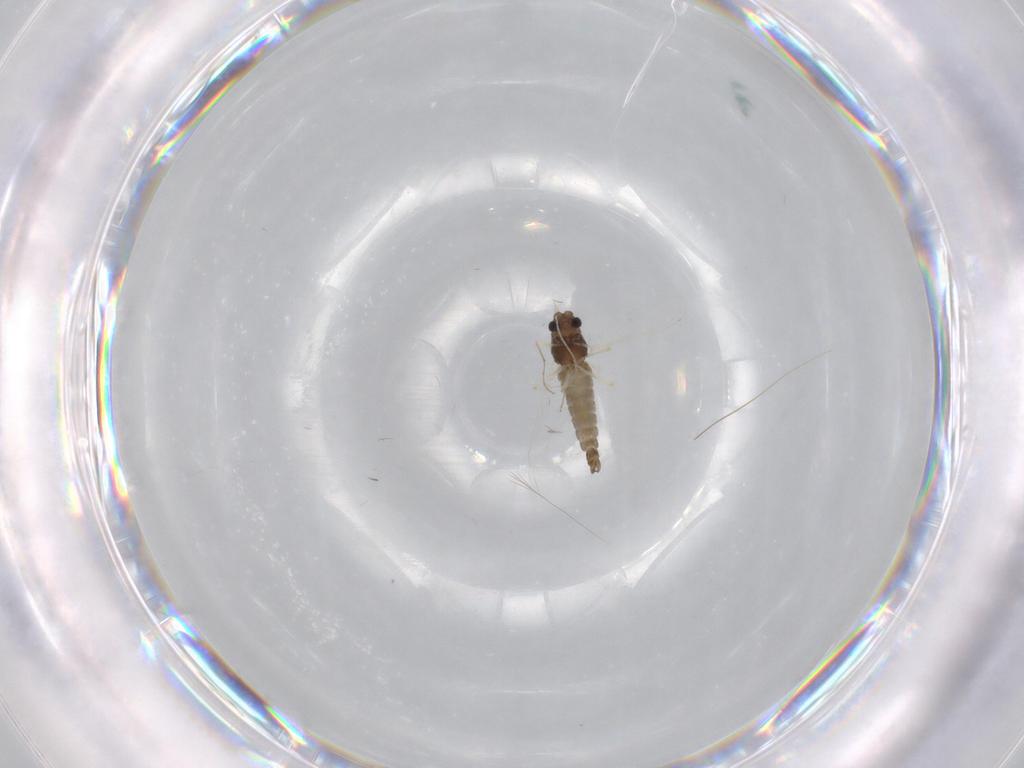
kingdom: Animalia
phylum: Arthropoda
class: Insecta
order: Diptera
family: Chironomidae
